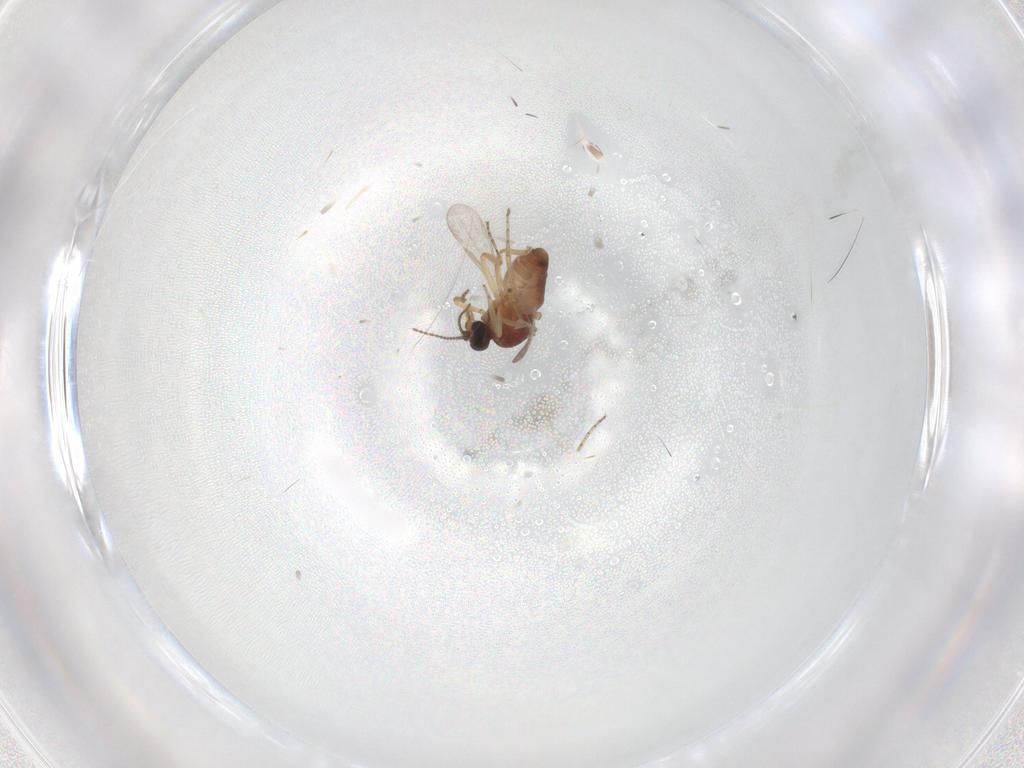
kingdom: Animalia
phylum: Arthropoda
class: Insecta
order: Diptera
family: Ceratopogonidae
